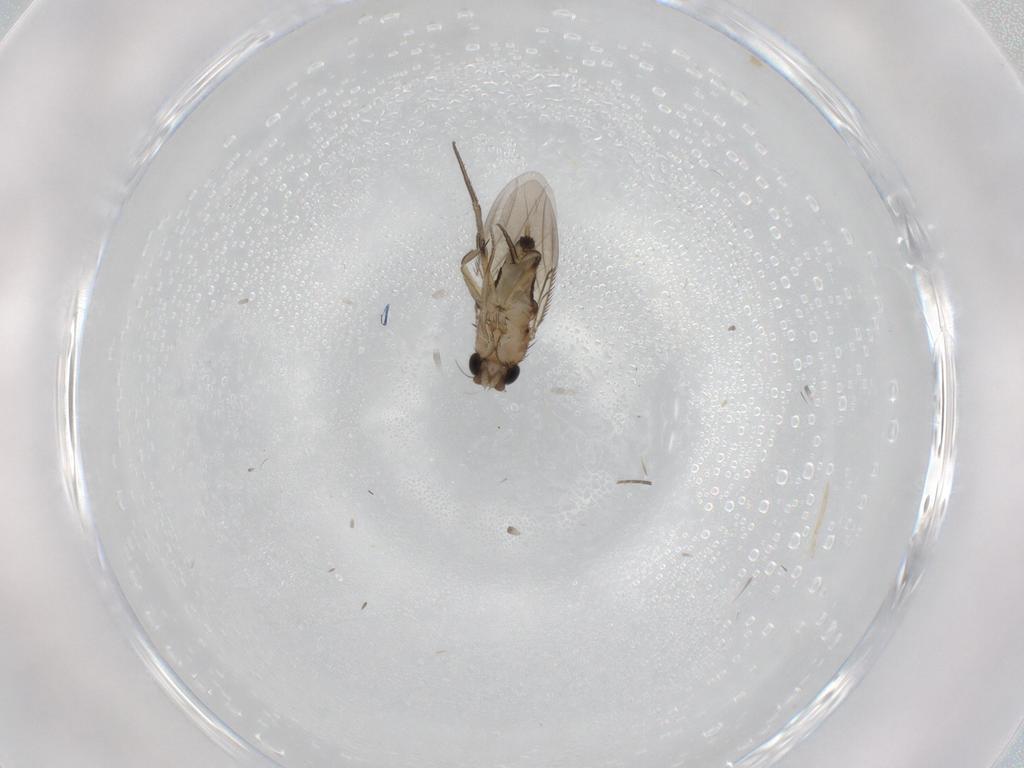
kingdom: Animalia
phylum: Arthropoda
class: Insecta
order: Diptera
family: Phoridae
